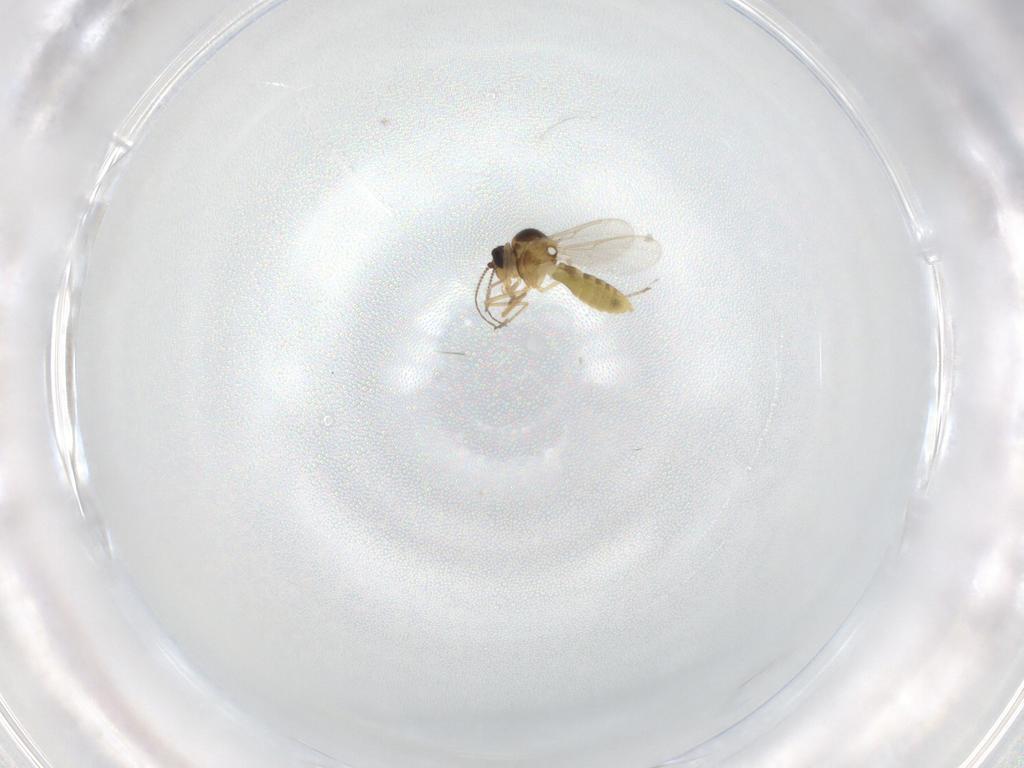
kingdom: Animalia
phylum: Arthropoda
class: Insecta
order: Diptera
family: Ceratopogonidae
